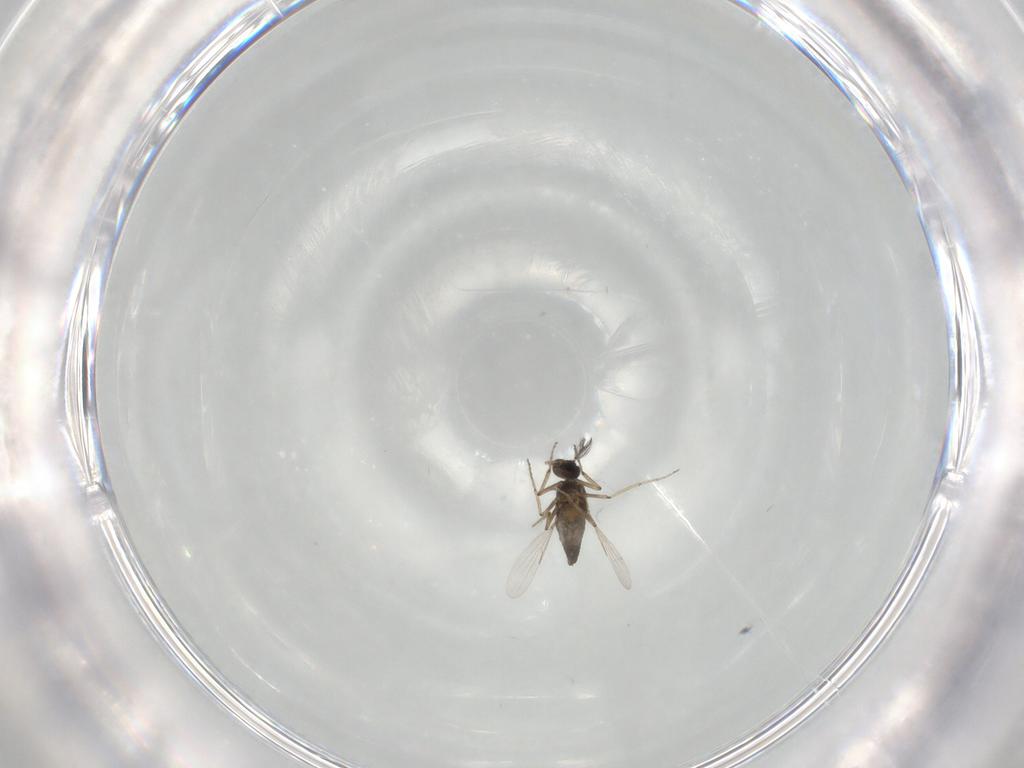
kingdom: Animalia
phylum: Arthropoda
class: Insecta
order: Diptera
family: Ceratopogonidae
